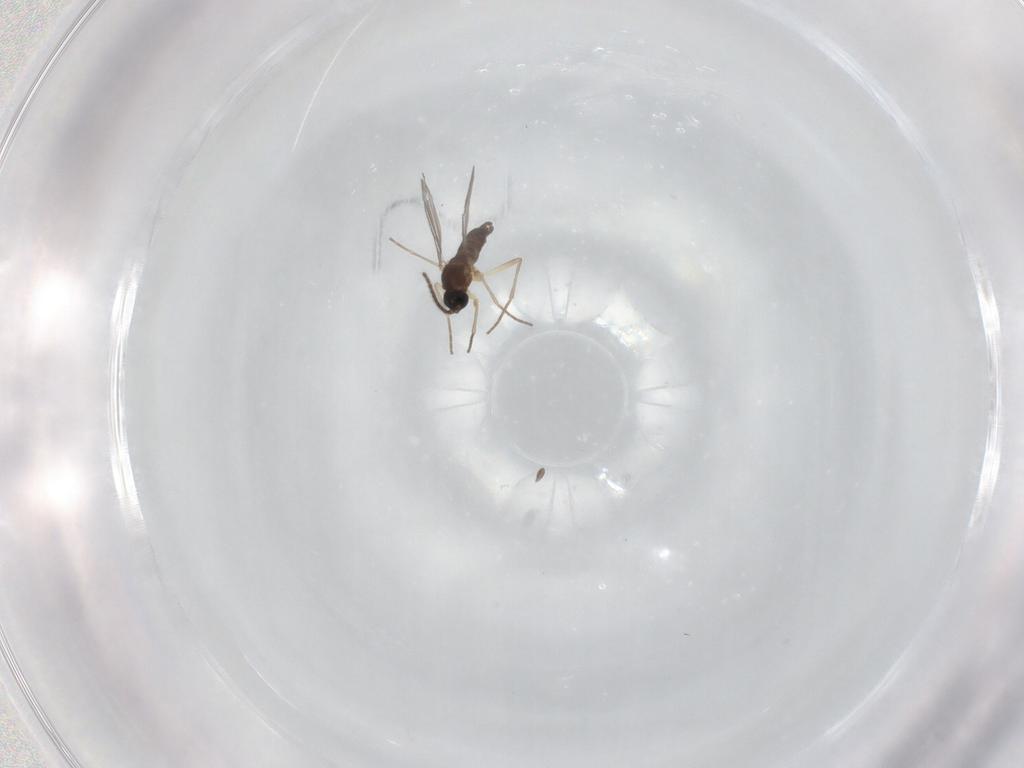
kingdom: Animalia
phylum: Arthropoda
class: Insecta
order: Diptera
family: Sciaridae
